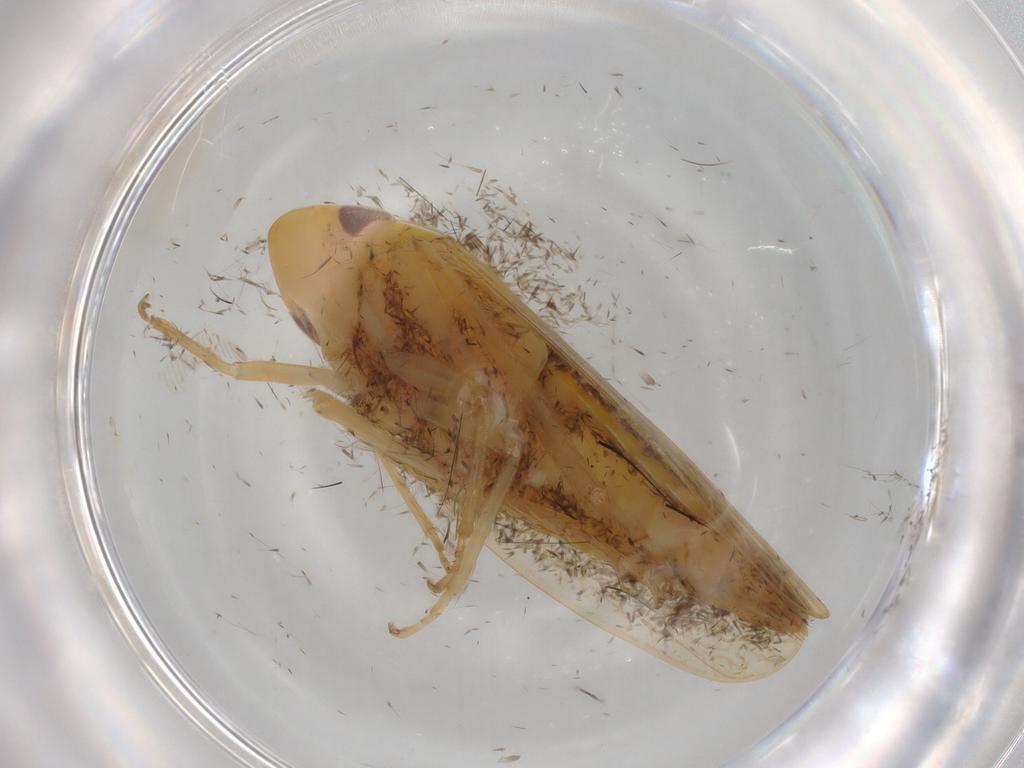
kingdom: Animalia
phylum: Arthropoda
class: Insecta
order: Hemiptera
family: Cicadellidae
